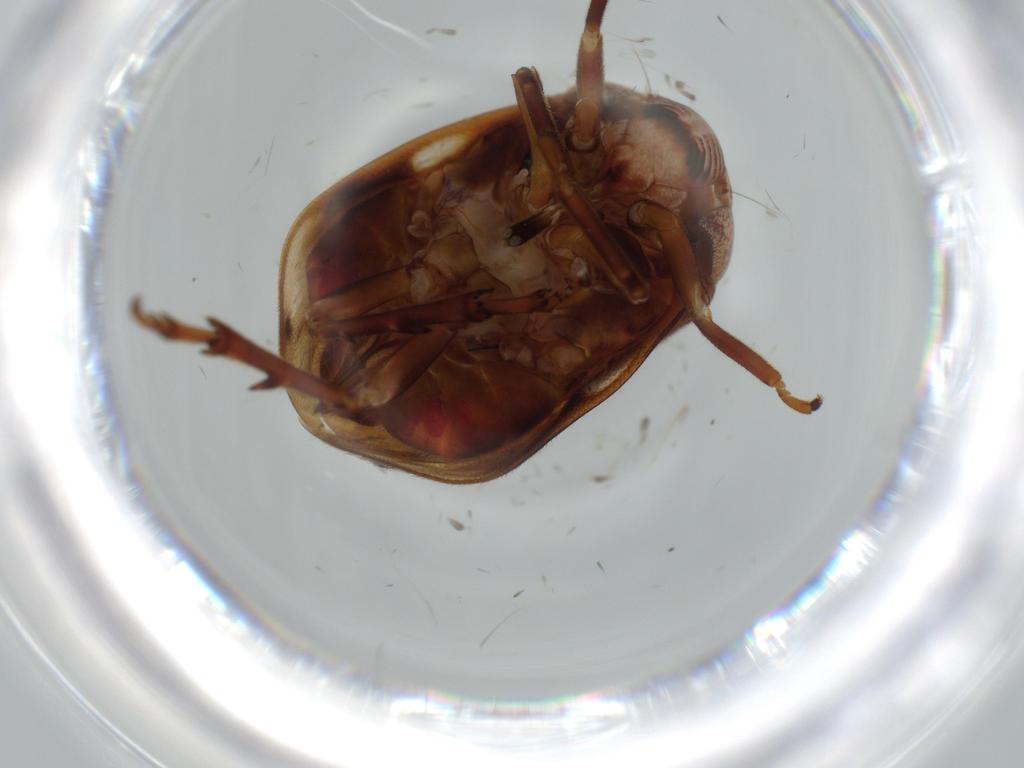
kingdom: Animalia
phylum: Arthropoda
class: Insecta
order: Hemiptera
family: Clastopteridae
